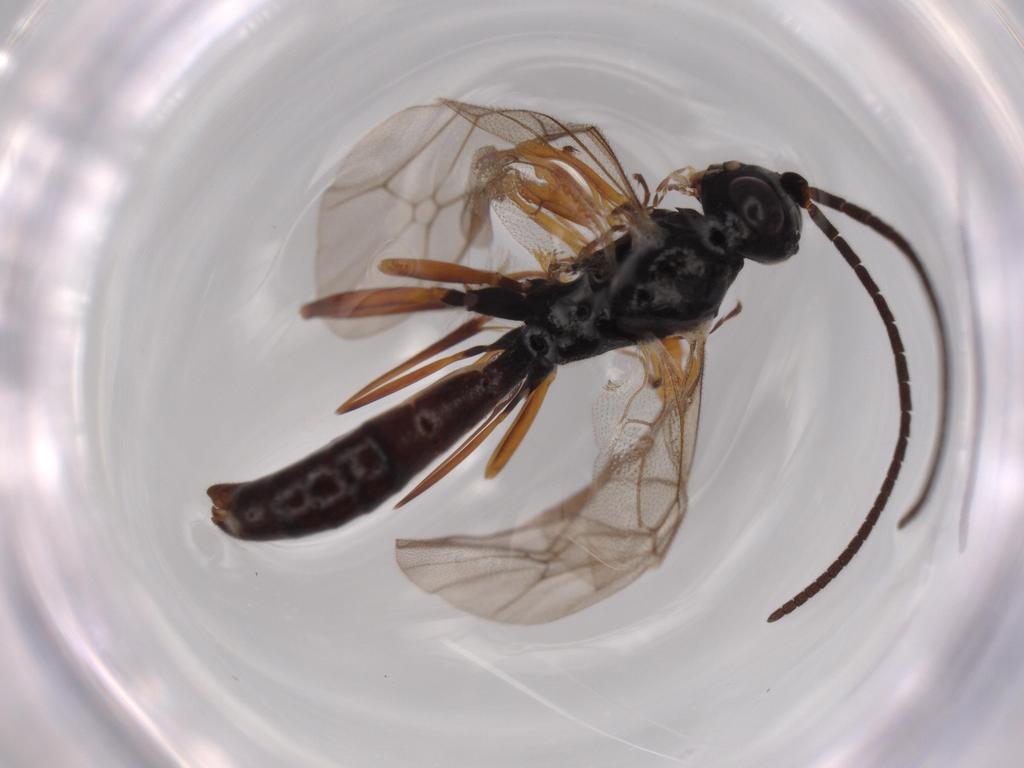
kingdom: Animalia
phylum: Arthropoda
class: Insecta
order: Hymenoptera
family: Ichneumonidae
